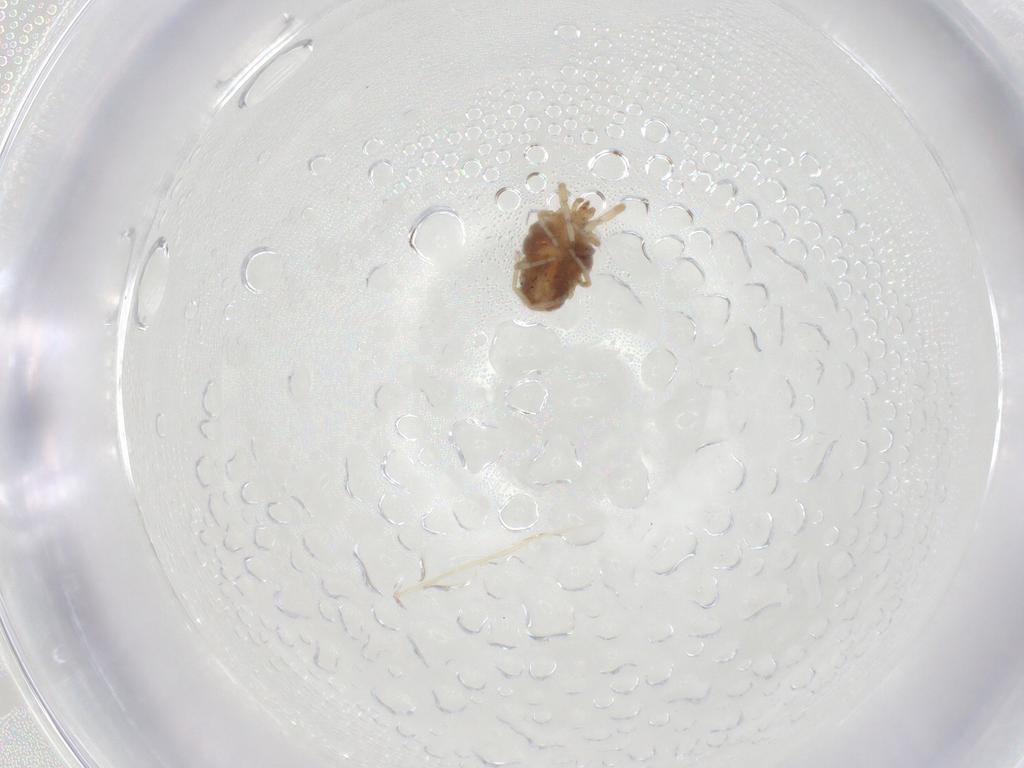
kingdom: Animalia
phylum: Arthropoda
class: Arachnida
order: Trombidiformes
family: Erythraeidae
